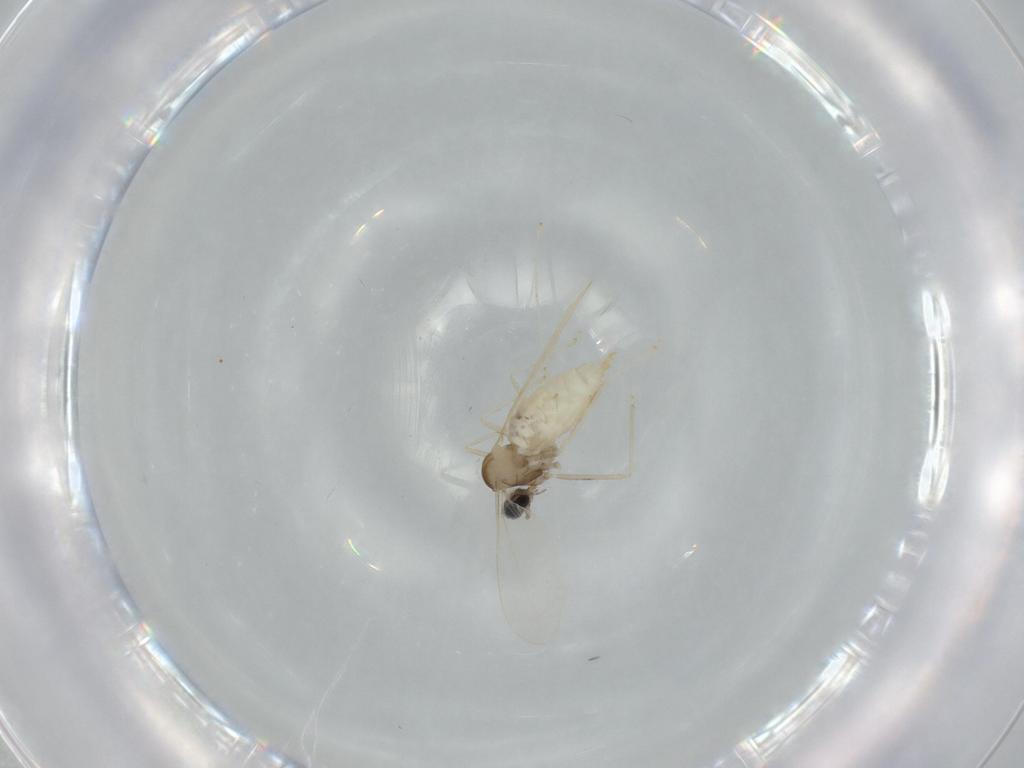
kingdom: Animalia
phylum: Arthropoda
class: Insecta
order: Diptera
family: Cecidomyiidae
